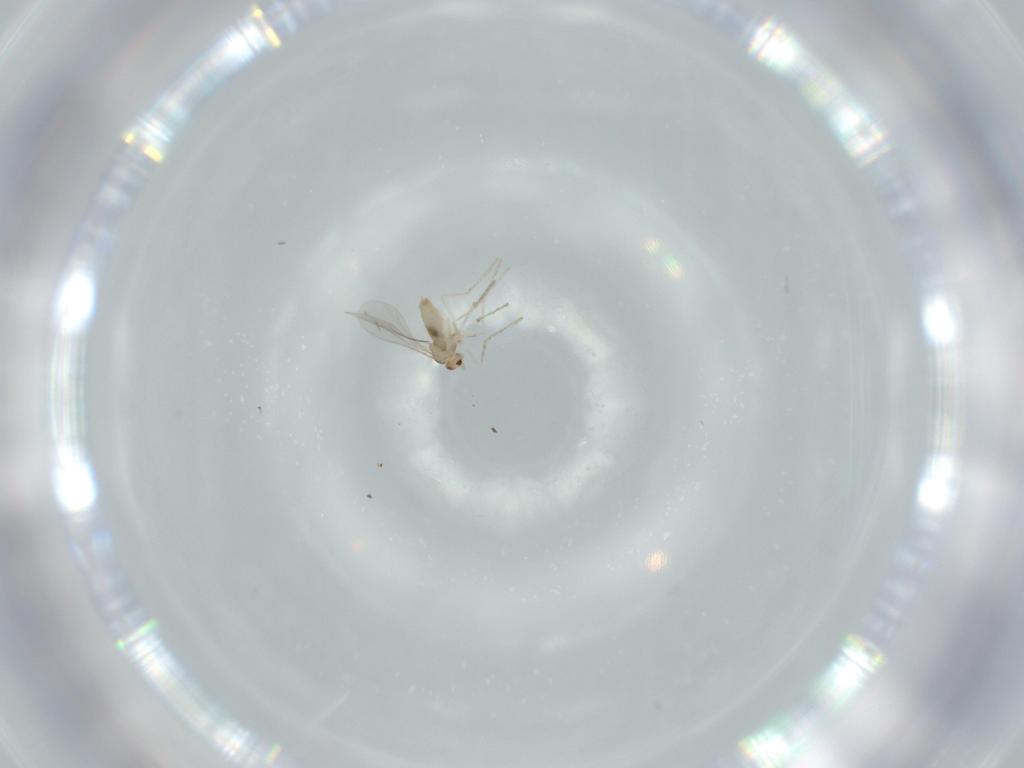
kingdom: Animalia
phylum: Arthropoda
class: Insecta
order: Diptera
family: Cecidomyiidae
